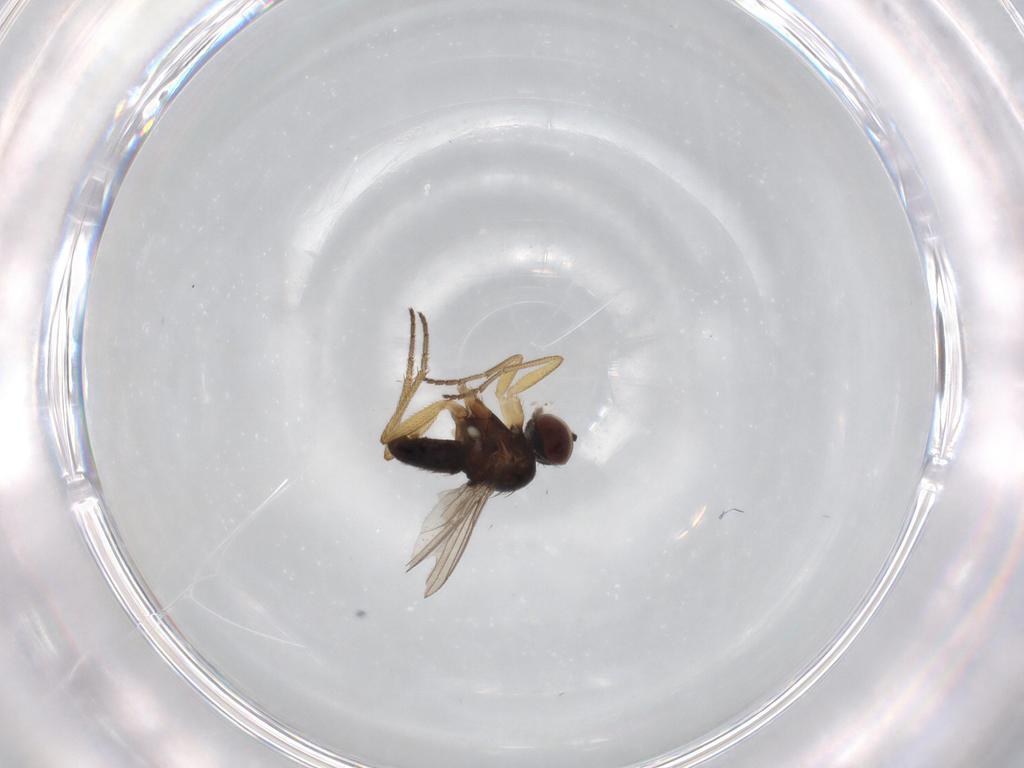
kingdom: Animalia
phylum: Arthropoda
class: Insecta
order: Diptera
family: Dolichopodidae
